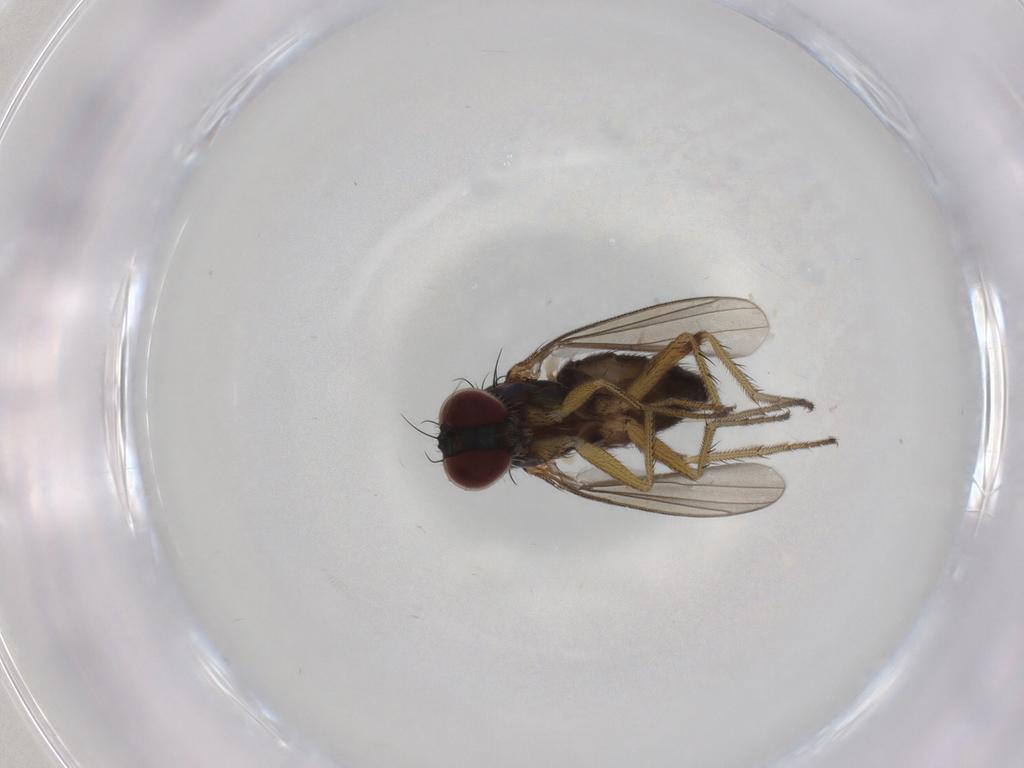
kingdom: Animalia
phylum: Arthropoda
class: Insecta
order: Diptera
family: Dolichopodidae
